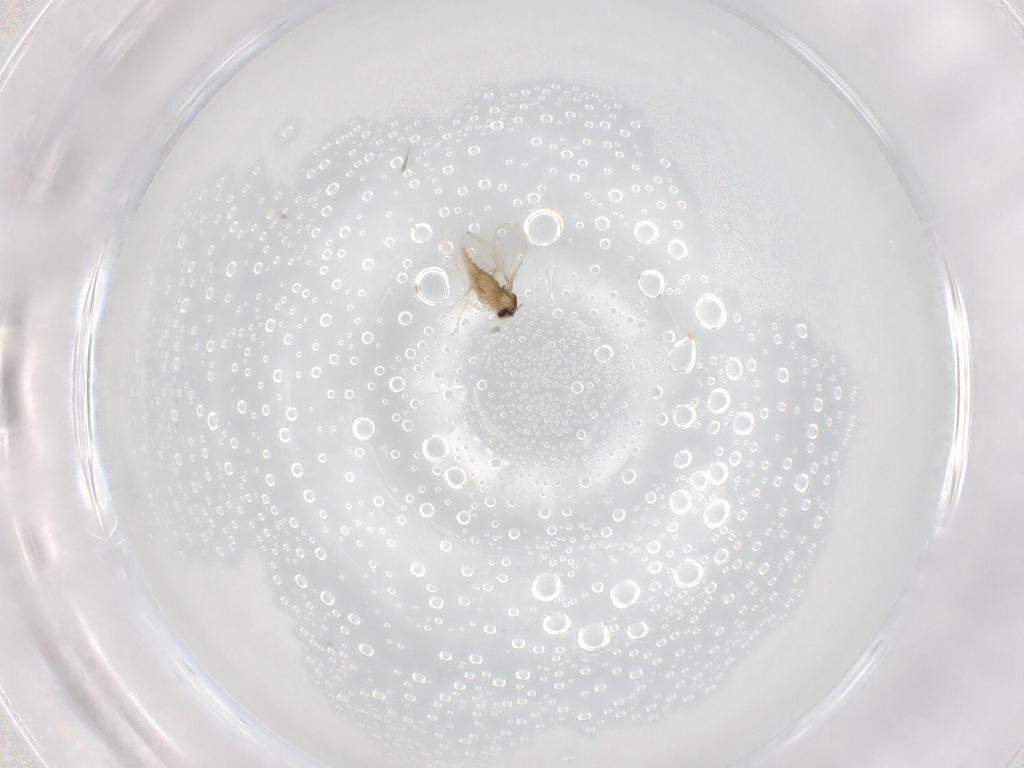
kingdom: Animalia
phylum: Arthropoda
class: Insecta
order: Diptera
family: Cecidomyiidae
